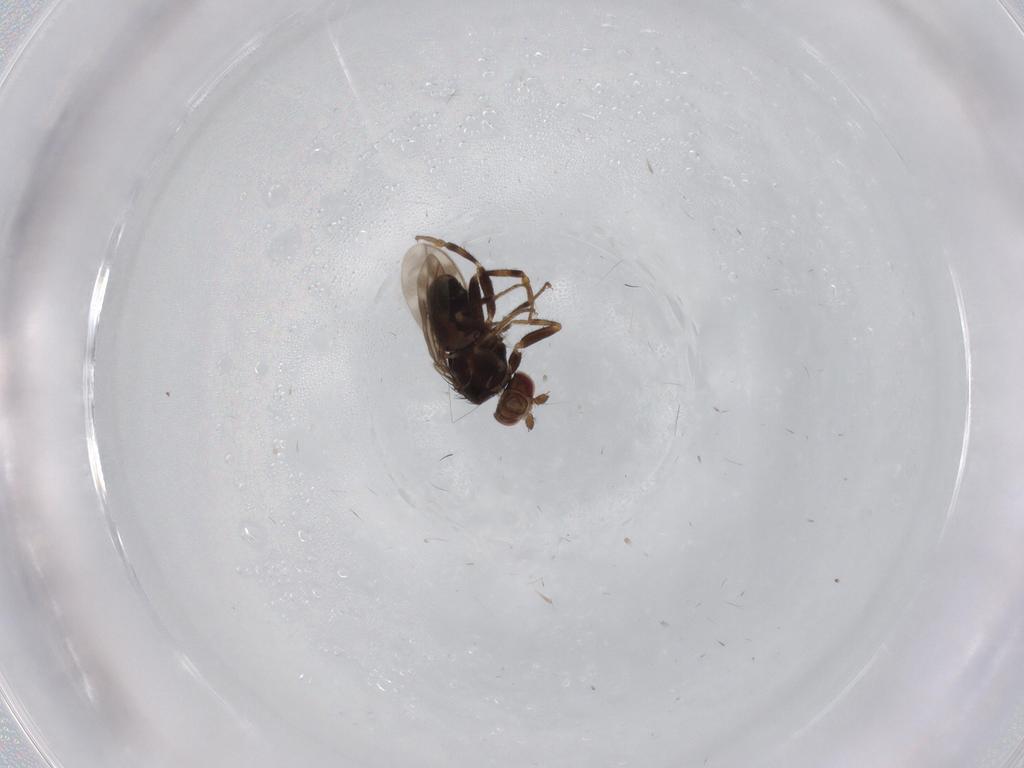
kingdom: Animalia
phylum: Arthropoda
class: Insecta
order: Diptera
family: Sphaeroceridae
